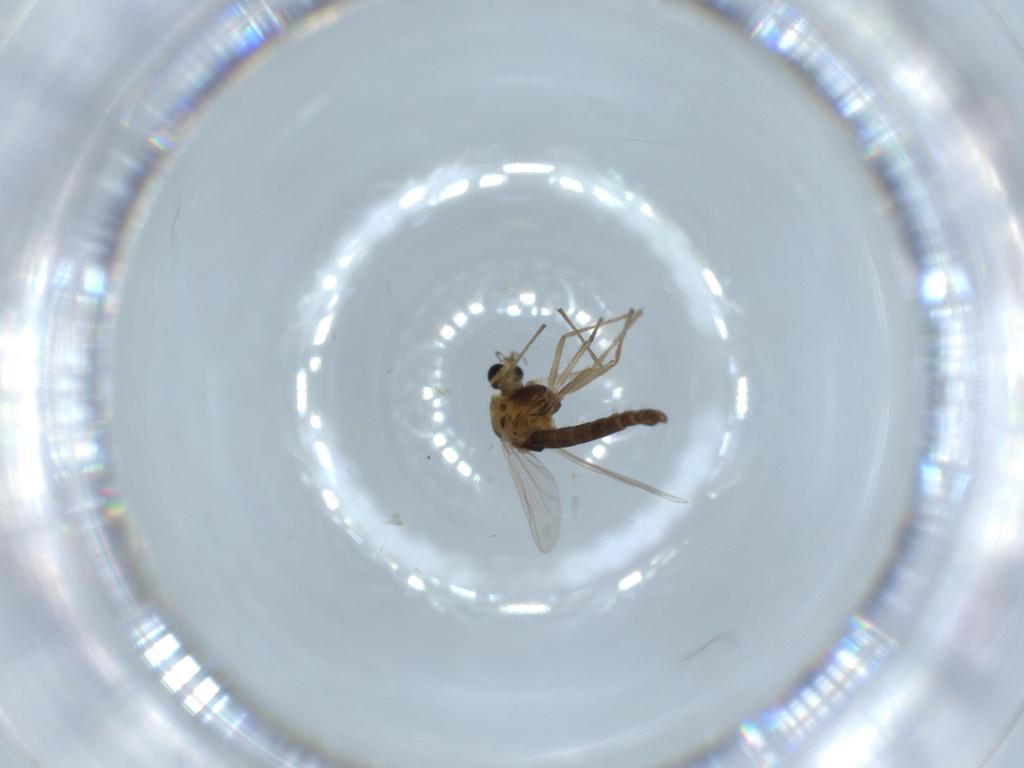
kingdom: Animalia
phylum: Arthropoda
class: Insecta
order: Diptera
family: Chironomidae
